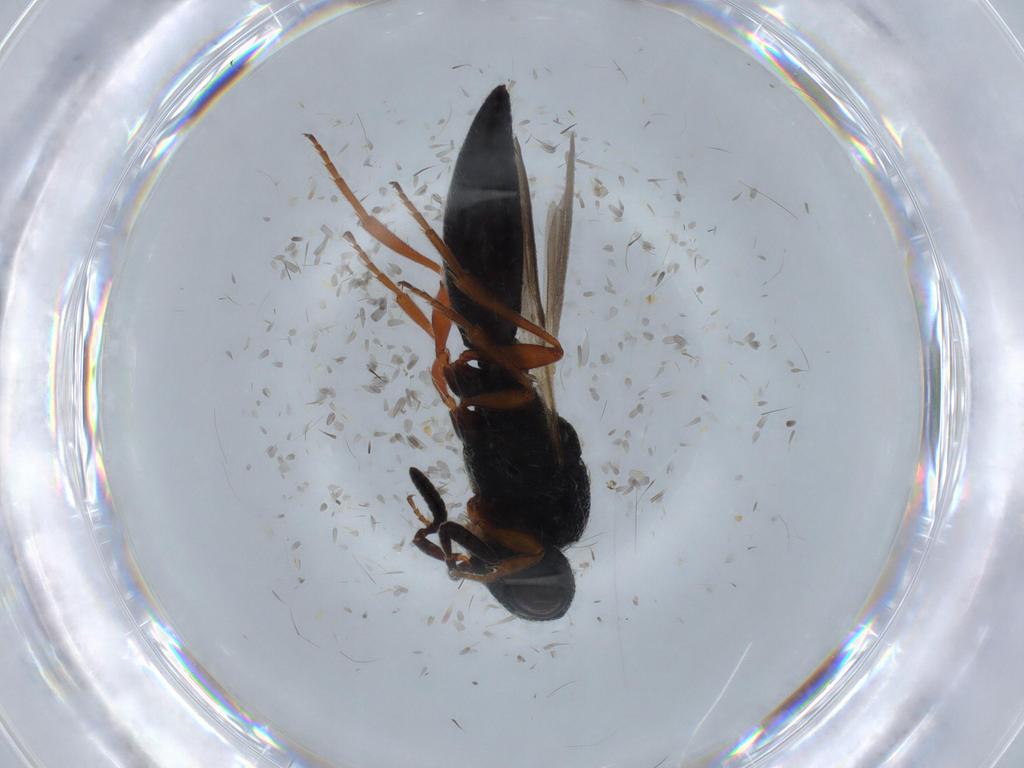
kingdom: Animalia
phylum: Arthropoda
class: Insecta
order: Hymenoptera
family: Scelionidae
